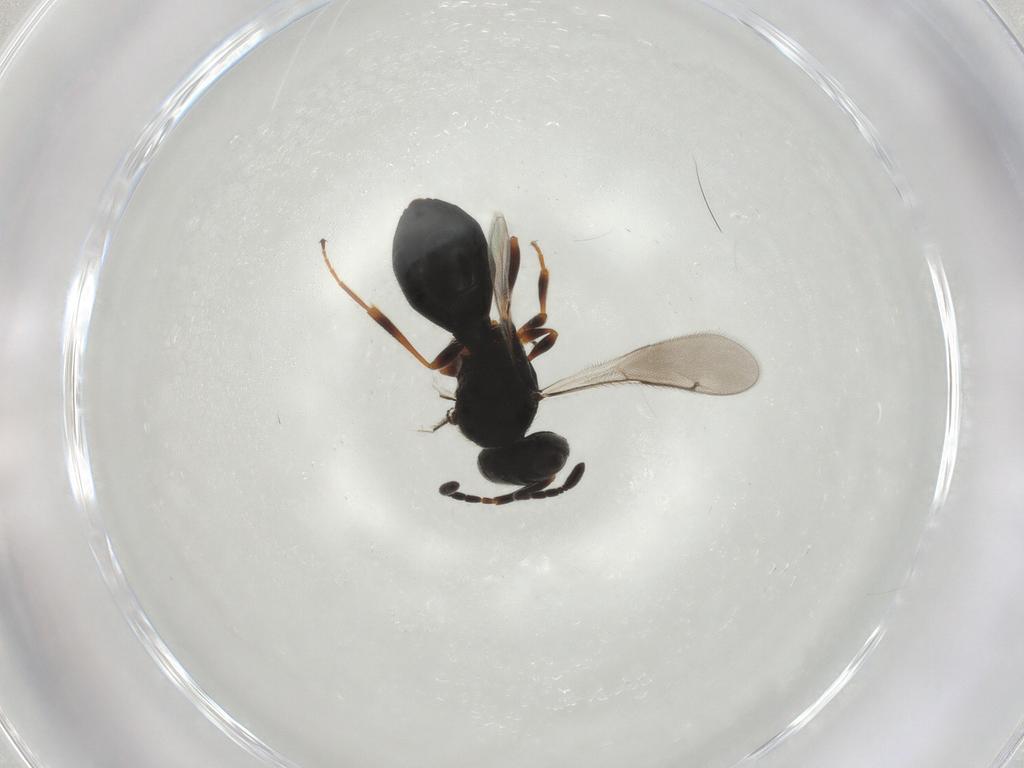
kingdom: Animalia
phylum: Arthropoda
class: Insecta
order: Hymenoptera
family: Scelionidae
